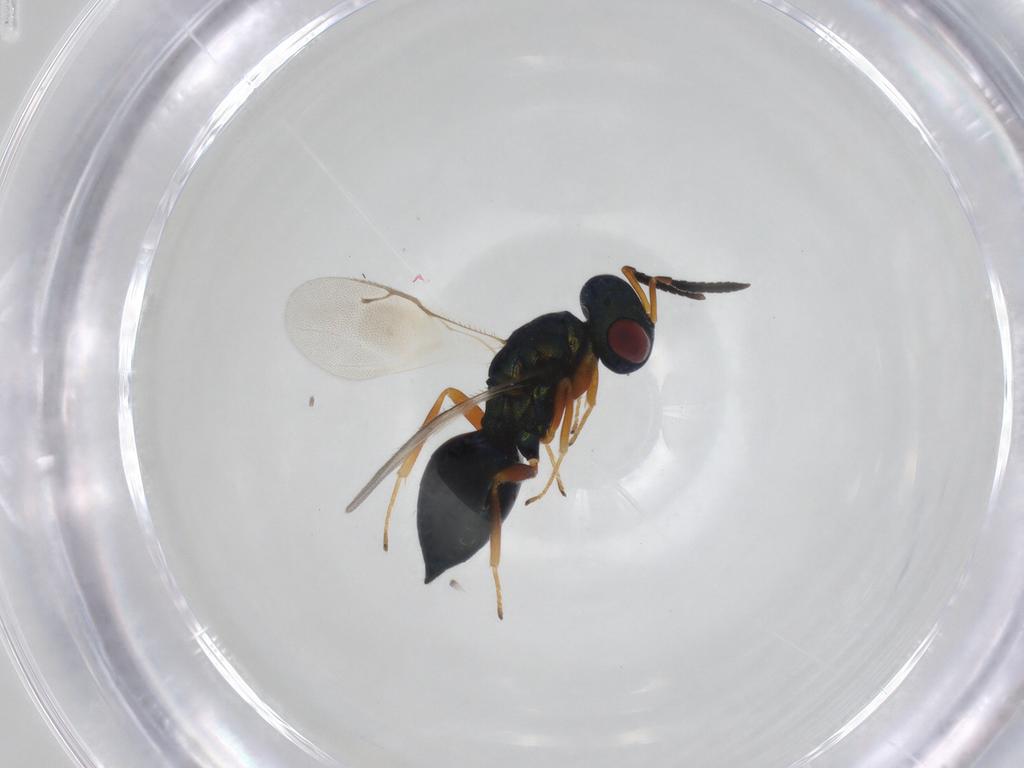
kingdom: Animalia
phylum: Arthropoda
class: Insecta
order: Hymenoptera
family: Pteromalidae
